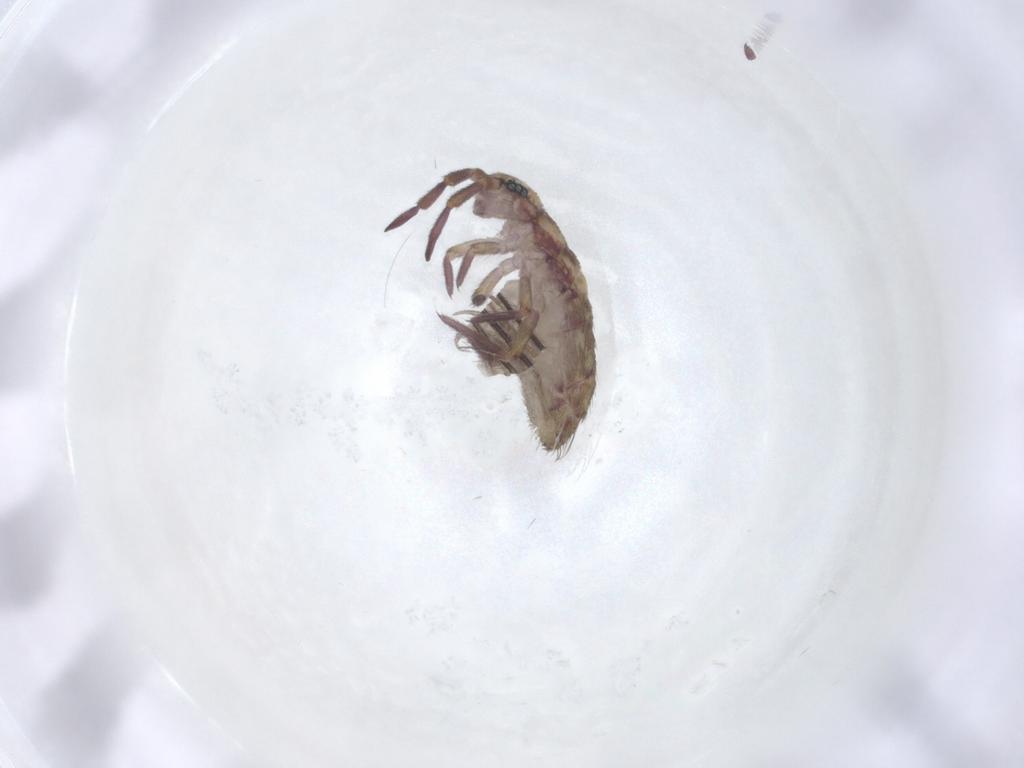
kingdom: Animalia
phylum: Arthropoda
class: Collembola
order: Entomobryomorpha
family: Isotomidae
